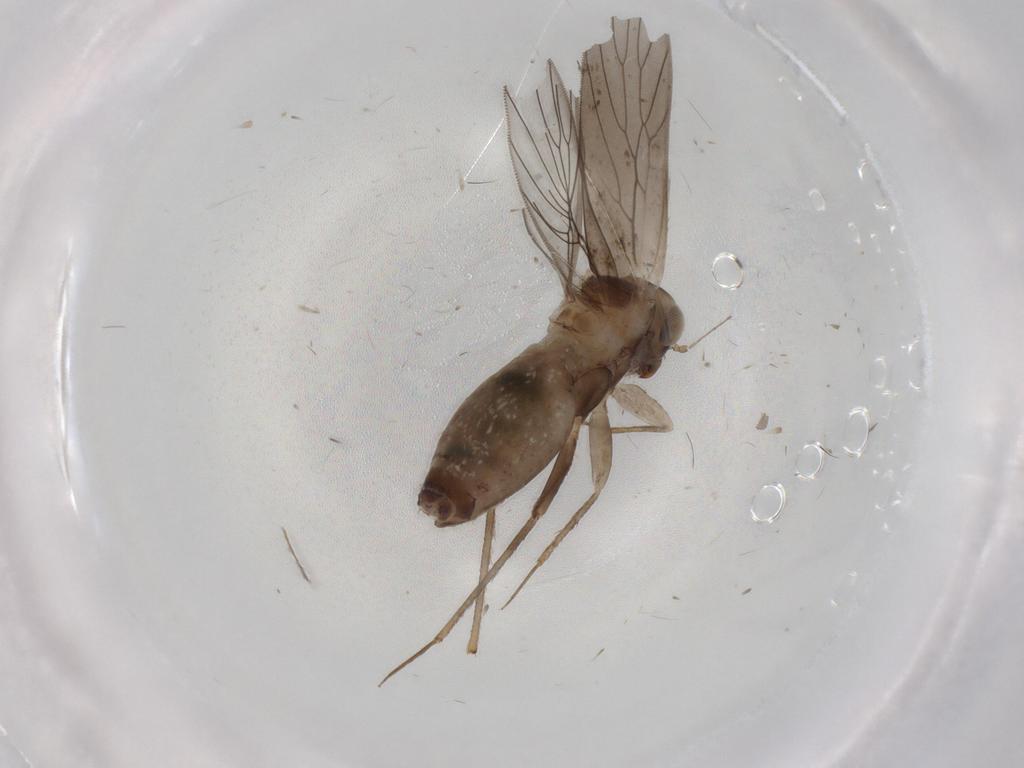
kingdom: Animalia
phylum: Arthropoda
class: Insecta
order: Psocodea
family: Lepidopsocidae
